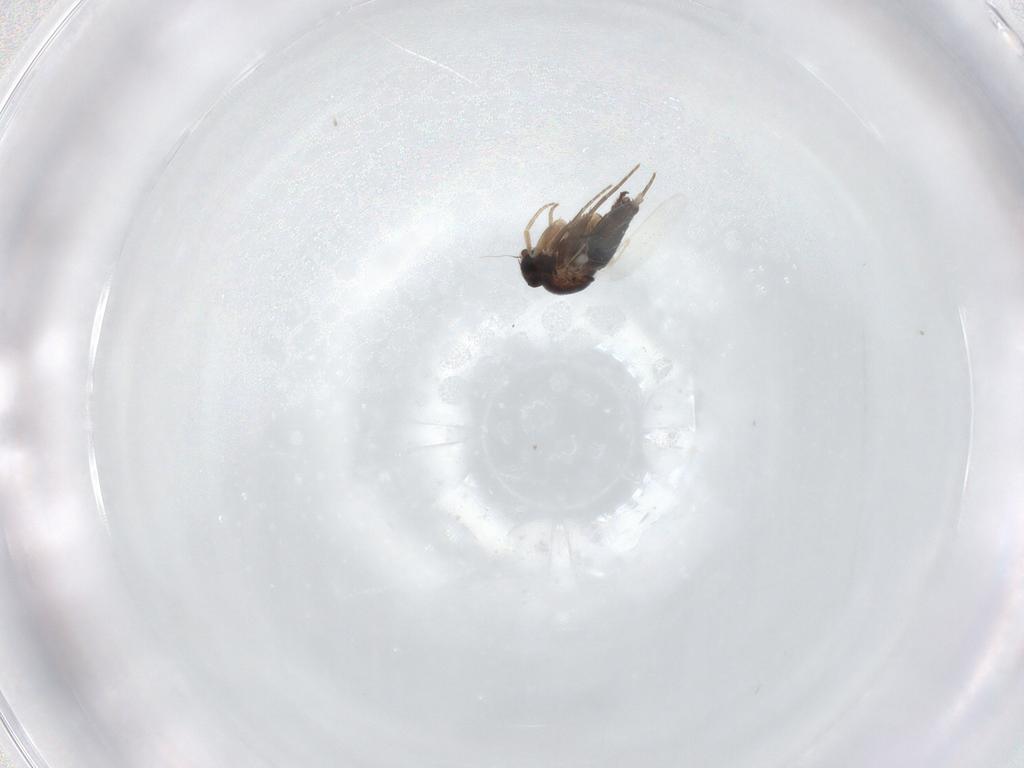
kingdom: Animalia
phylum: Arthropoda
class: Insecta
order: Diptera
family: Phoridae
